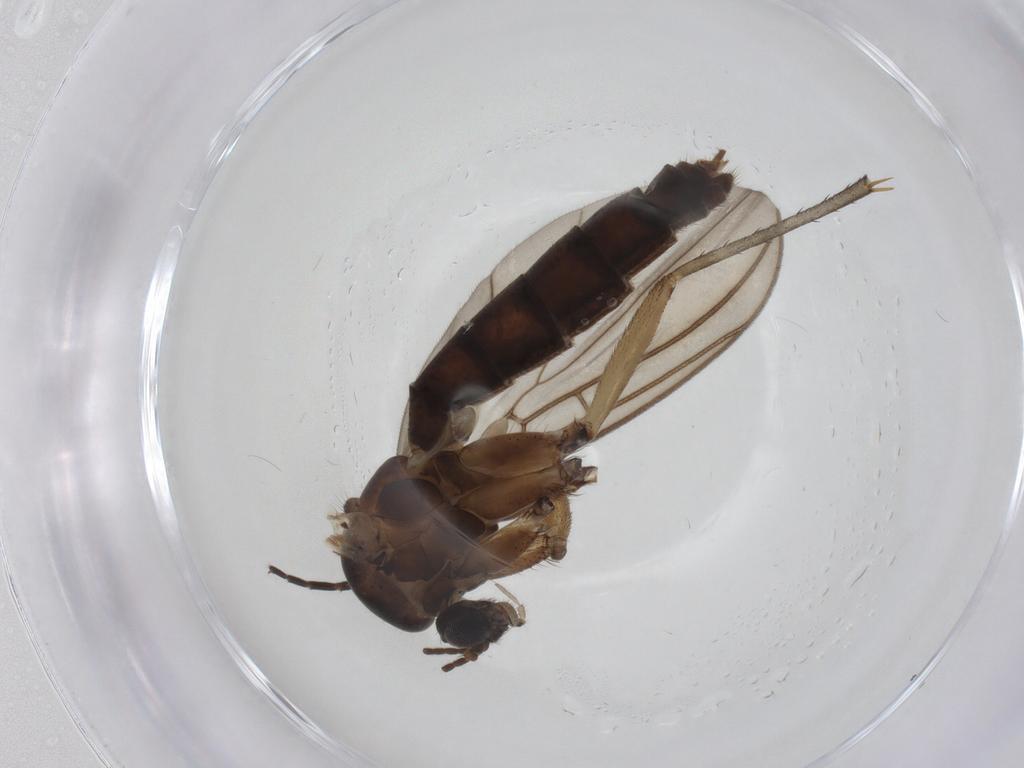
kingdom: Animalia
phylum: Arthropoda
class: Insecta
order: Diptera
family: Mycetophilidae
